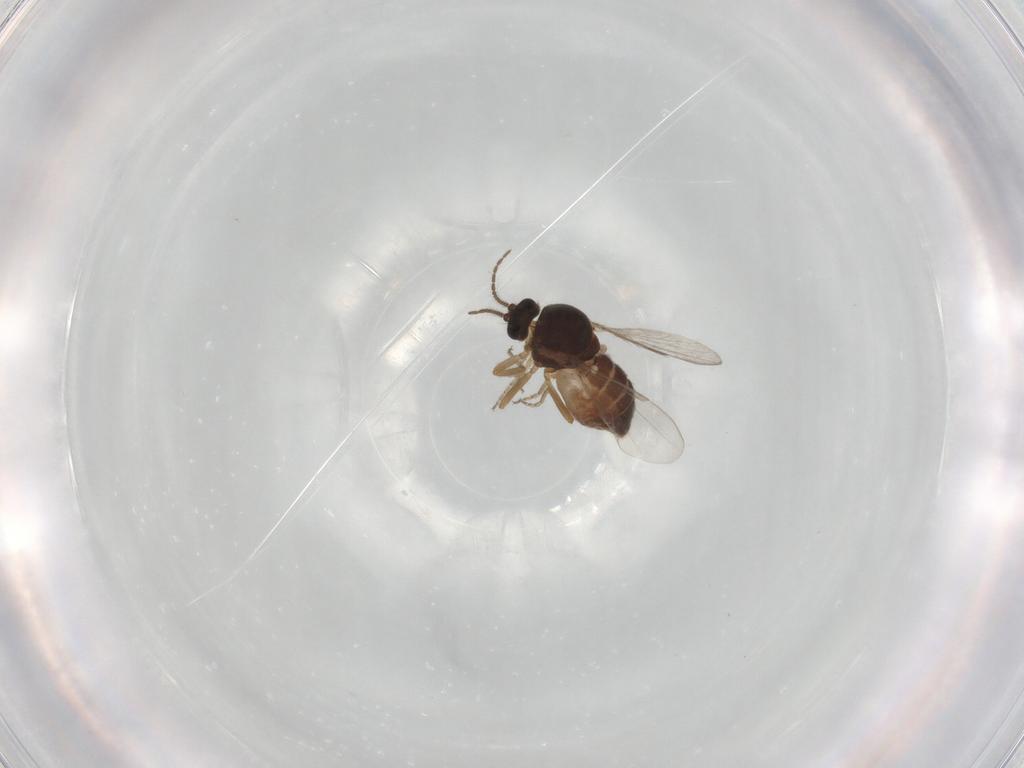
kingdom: Animalia
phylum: Arthropoda
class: Insecta
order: Diptera
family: Ceratopogonidae
